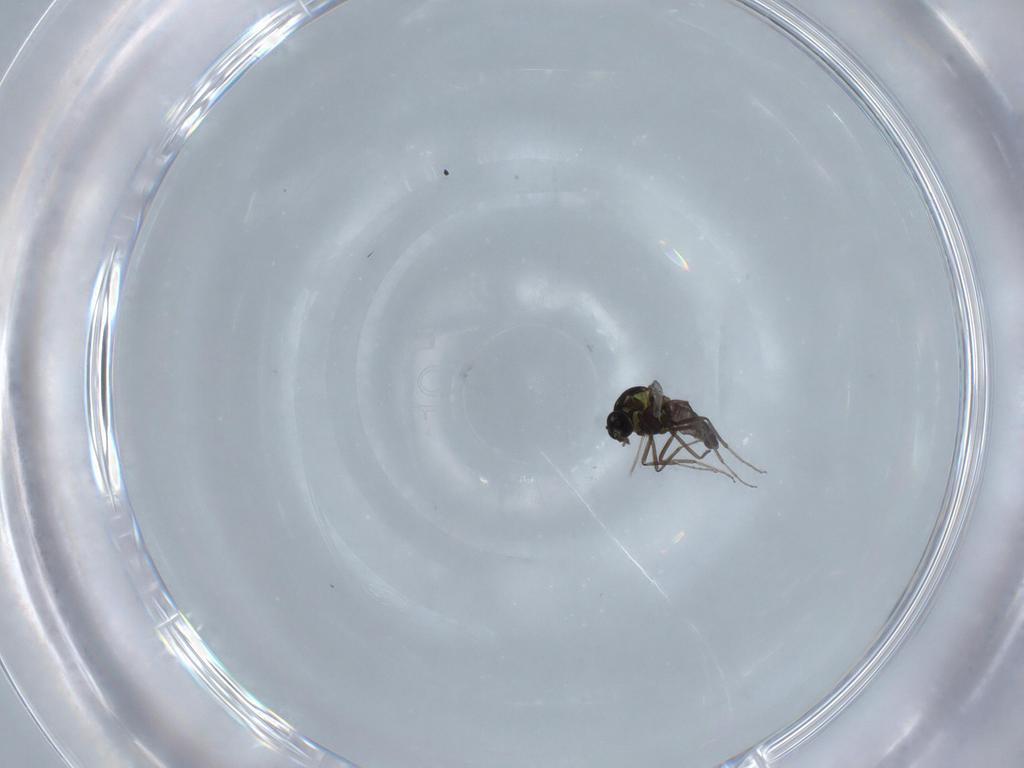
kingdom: Animalia
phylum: Arthropoda
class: Insecta
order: Diptera
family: Ceratopogonidae
